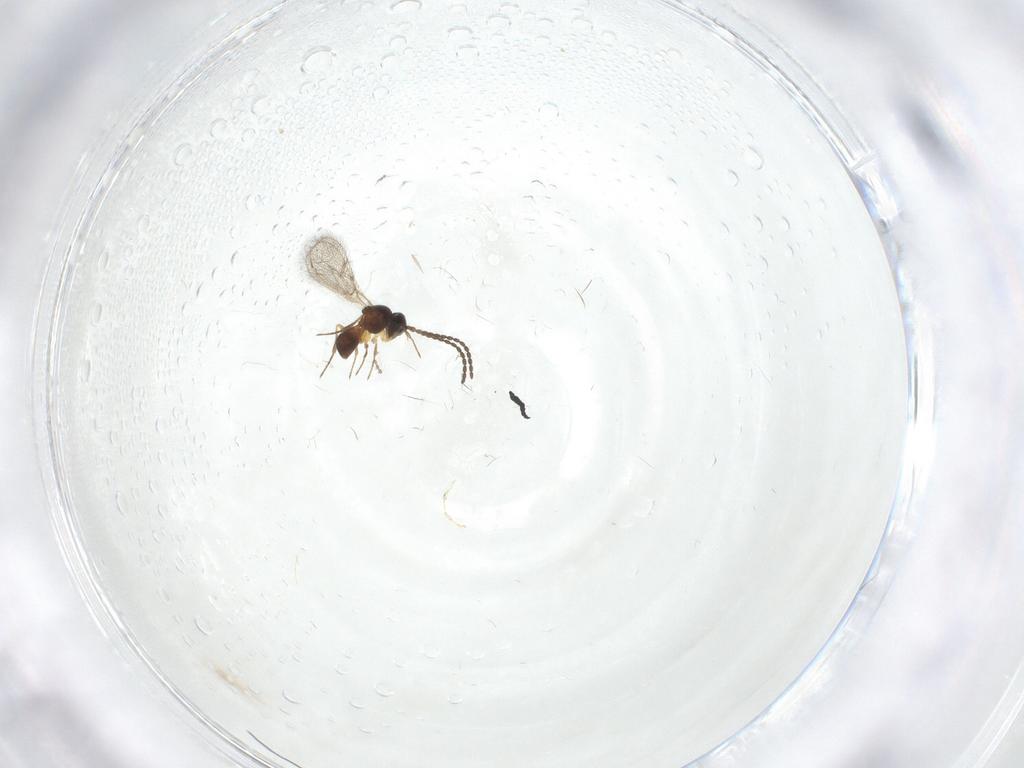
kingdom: Animalia
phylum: Arthropoda
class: Insecta
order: Hymenoptera
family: Figitidae
